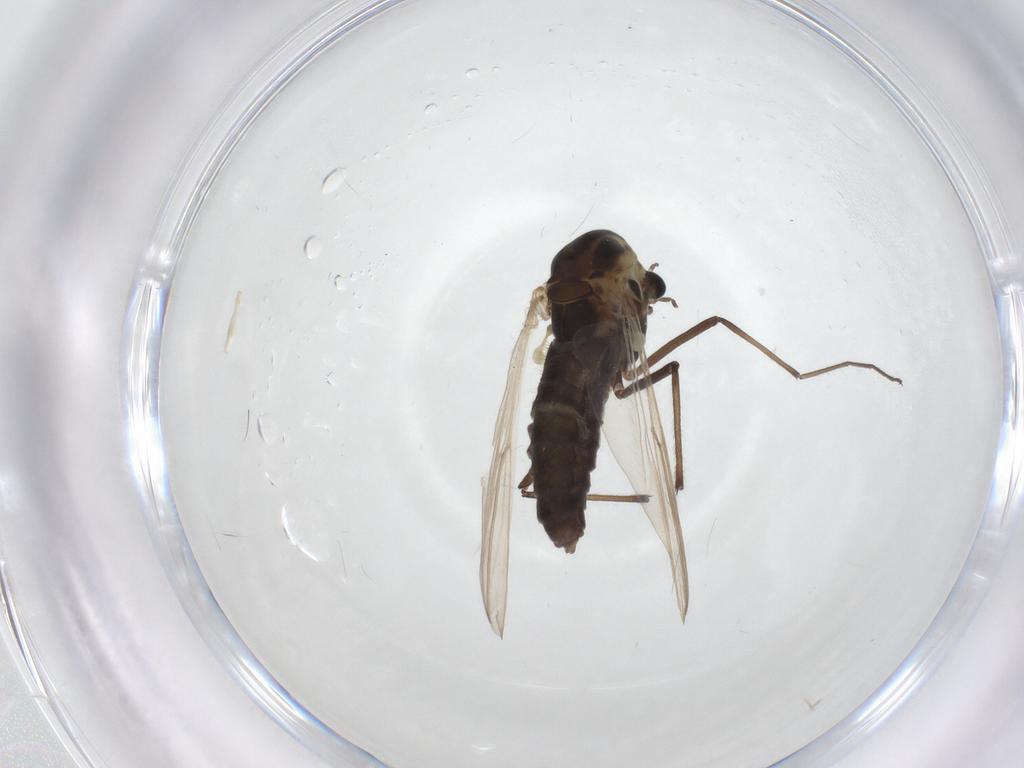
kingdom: Animalia
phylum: Arthropoda
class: Insecta
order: Diptera
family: Chironomidae
